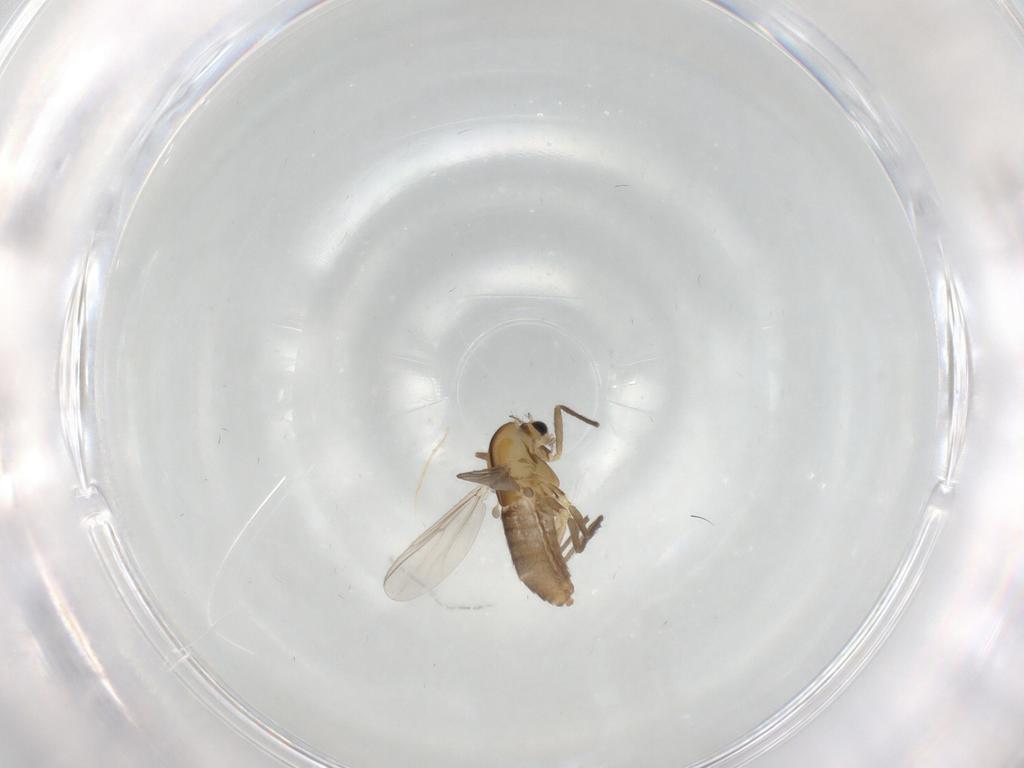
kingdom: Animalia
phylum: Arthropoda
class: Insecta
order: Diptera
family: Chironomidae
